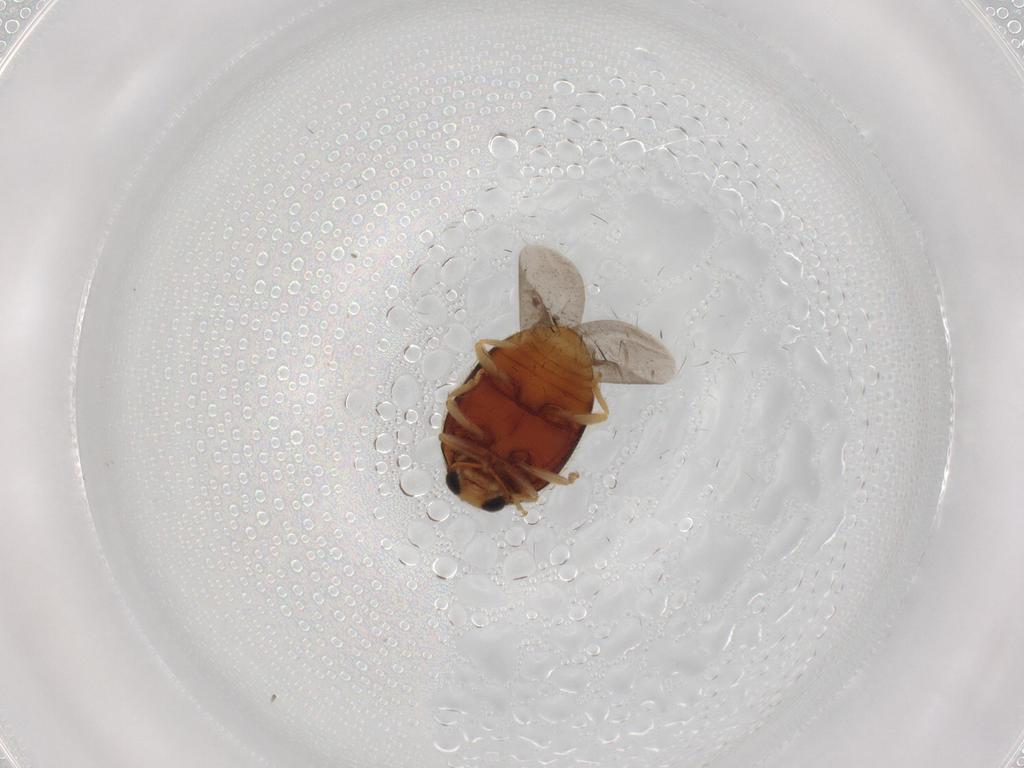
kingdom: Animalia
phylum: Arthropoda
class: Insecta
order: Coleoptera
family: Coccinellidae
